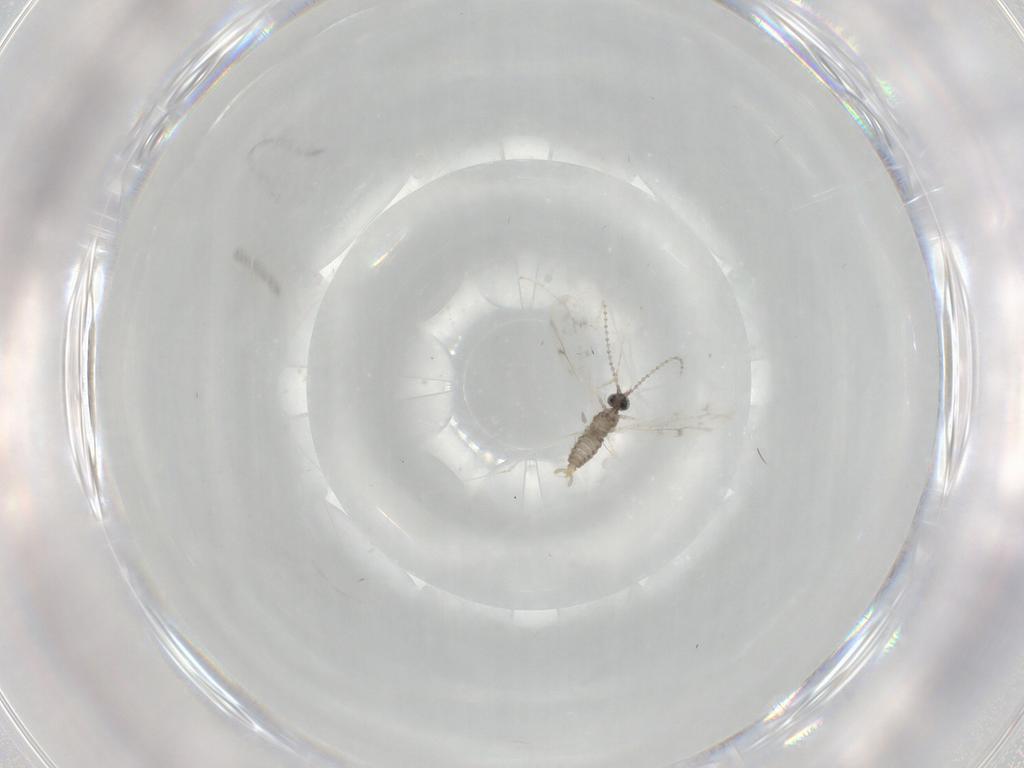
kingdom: Animalia
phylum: Arthropoda
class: Insecta
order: Diptera
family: Cecidomyiidae
